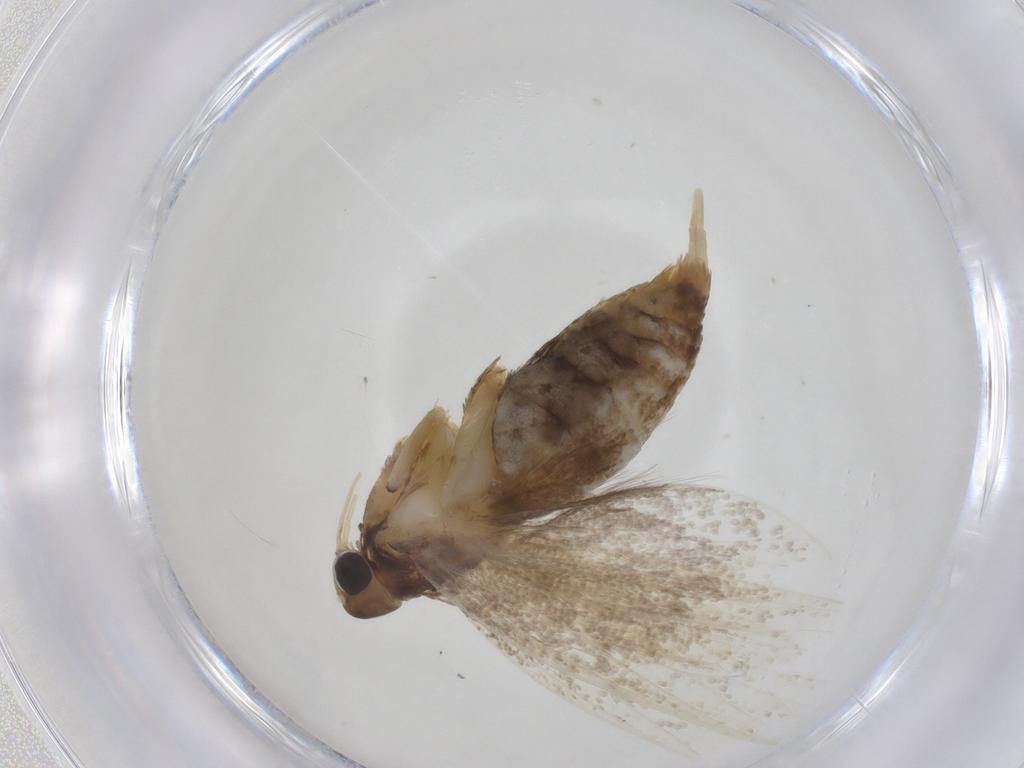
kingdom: Animalia
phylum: Arthropoda
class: Insecta
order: Lepidoptera
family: Lecithoceridae
